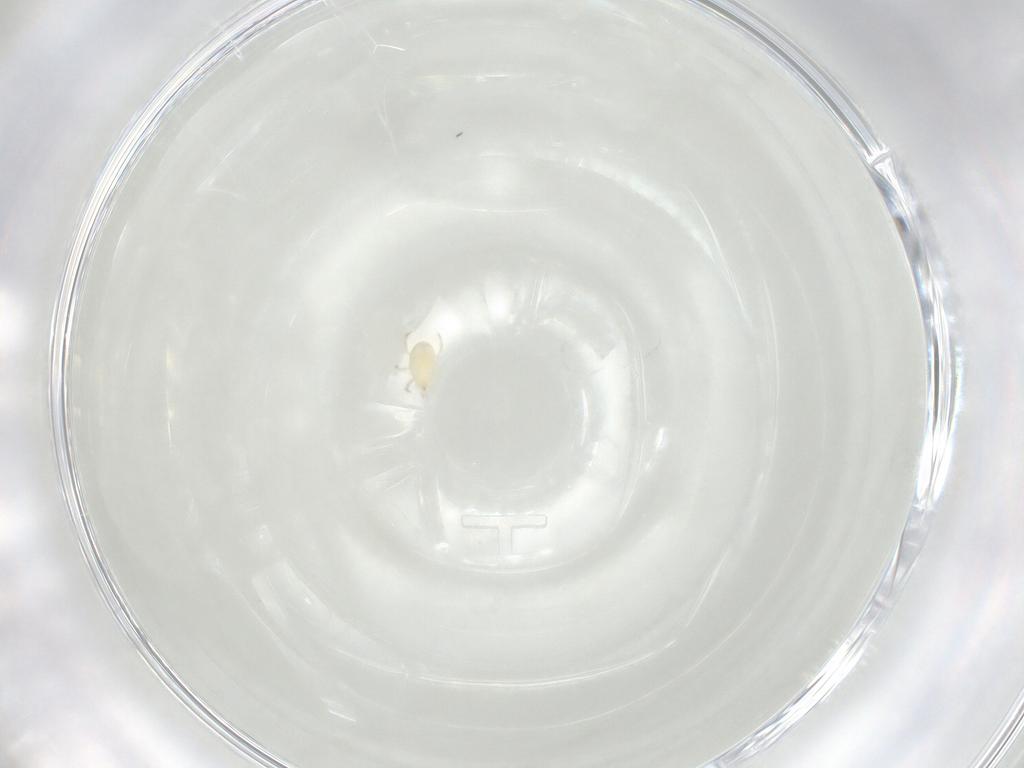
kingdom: Animalia
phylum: Arthropoda
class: Arachnida
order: Mesostigmata
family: Phytoseiidae
